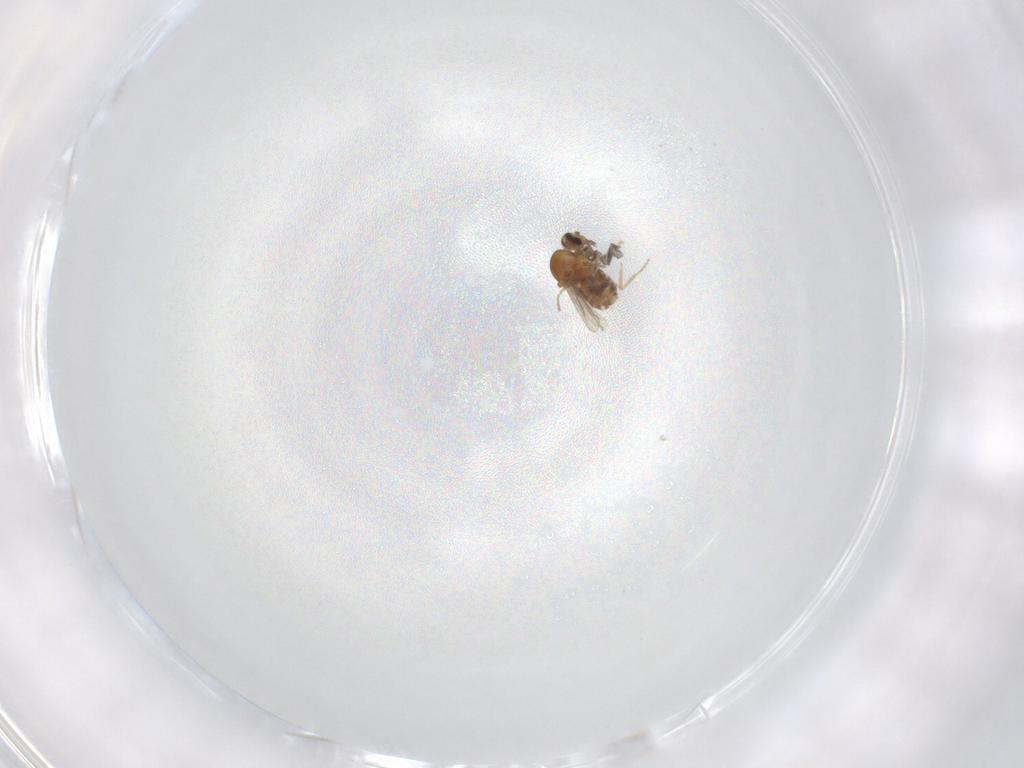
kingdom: Animalia
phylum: Arthropoda
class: Insecta
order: Diptera
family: Cecidomyiidae
